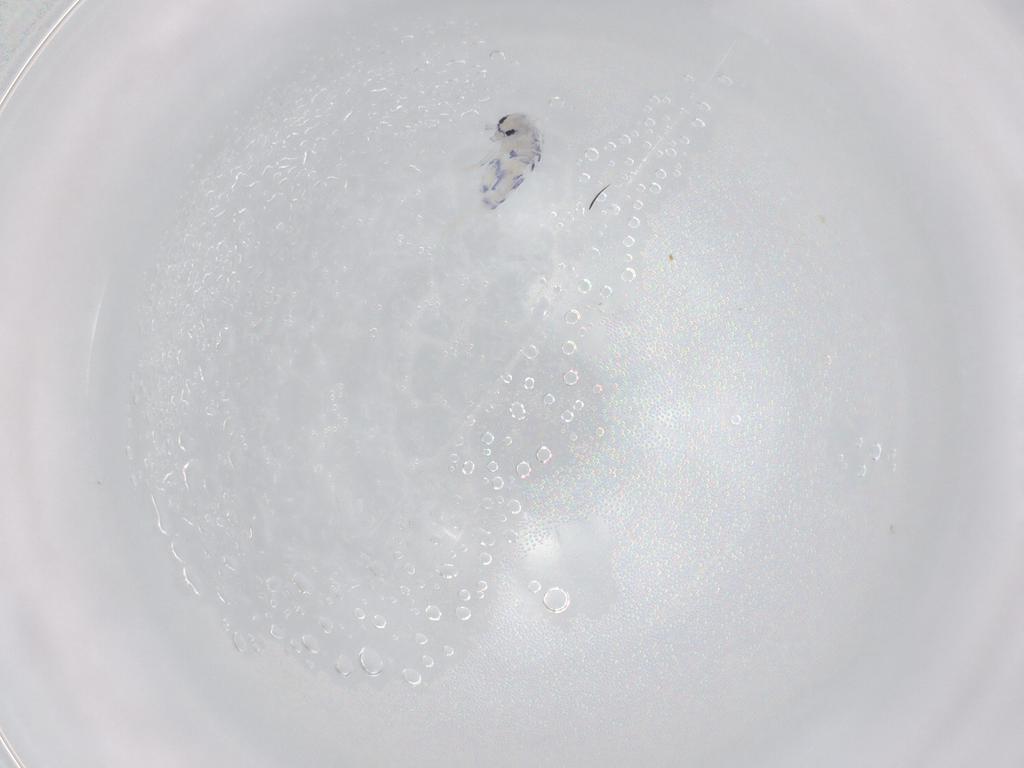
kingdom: Animalia
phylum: Arthropoda
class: Collembola
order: Entomobryomorpha
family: Entomobryidae
